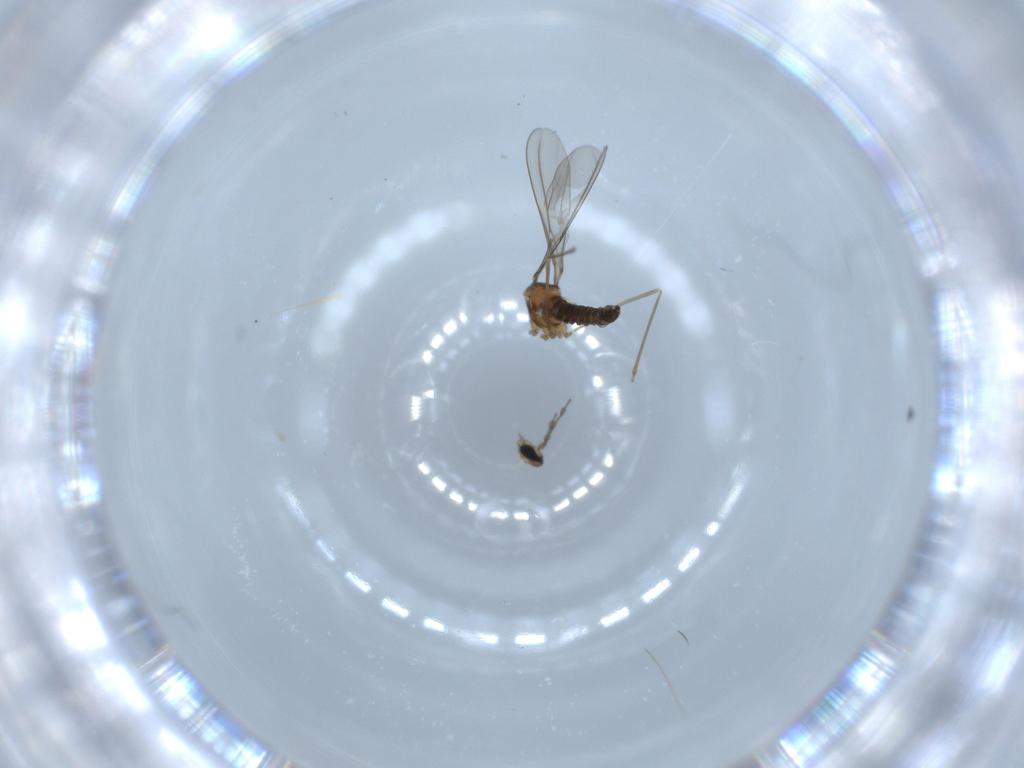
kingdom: Animalia
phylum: Arthropoda
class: Insecta
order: Diptera
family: Cecidomyiidae
